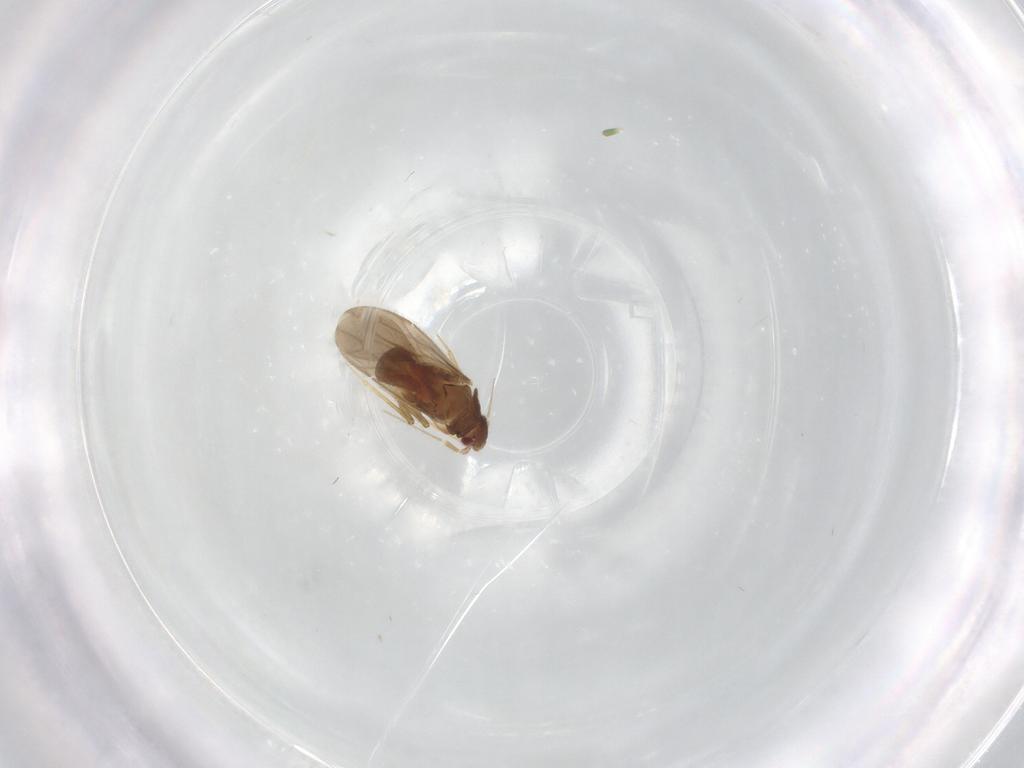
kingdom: Animalia
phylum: Arthropoda
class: Insecta
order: Hemiptera
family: Ceratocombidae
